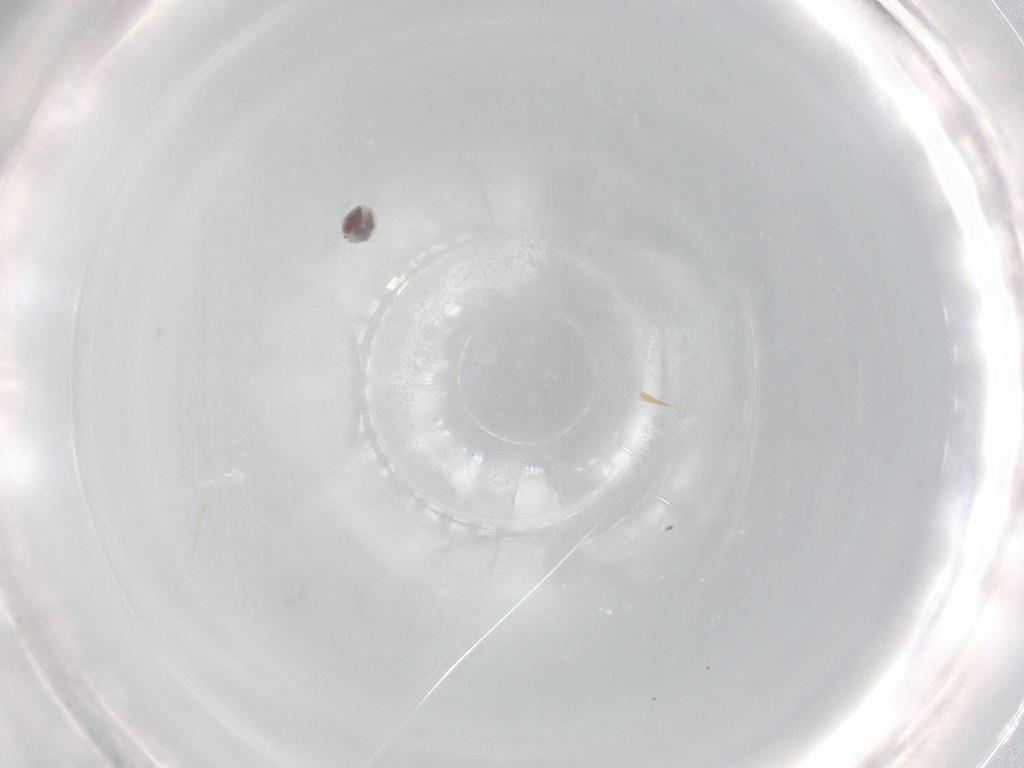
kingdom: Animalia
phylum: Arthropoda
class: Arachnida
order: Trombidiformes
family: Unionicolidae
